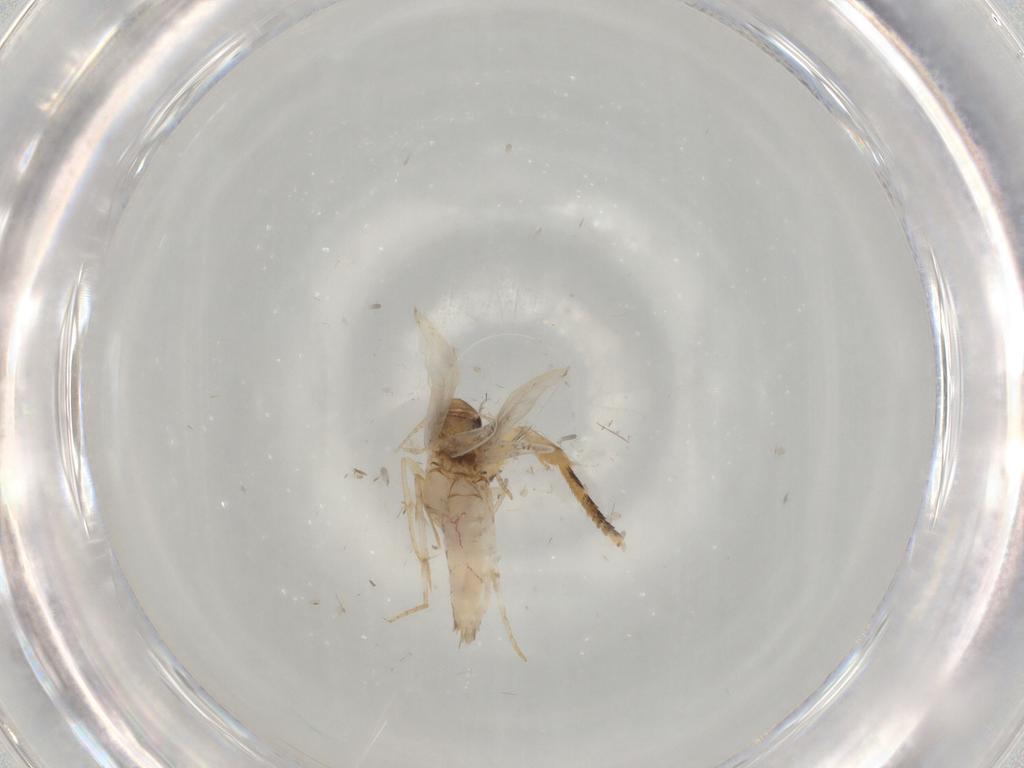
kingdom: Animalia
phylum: Arthropoda
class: Insecta
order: Lepidoptera
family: Tineidae
